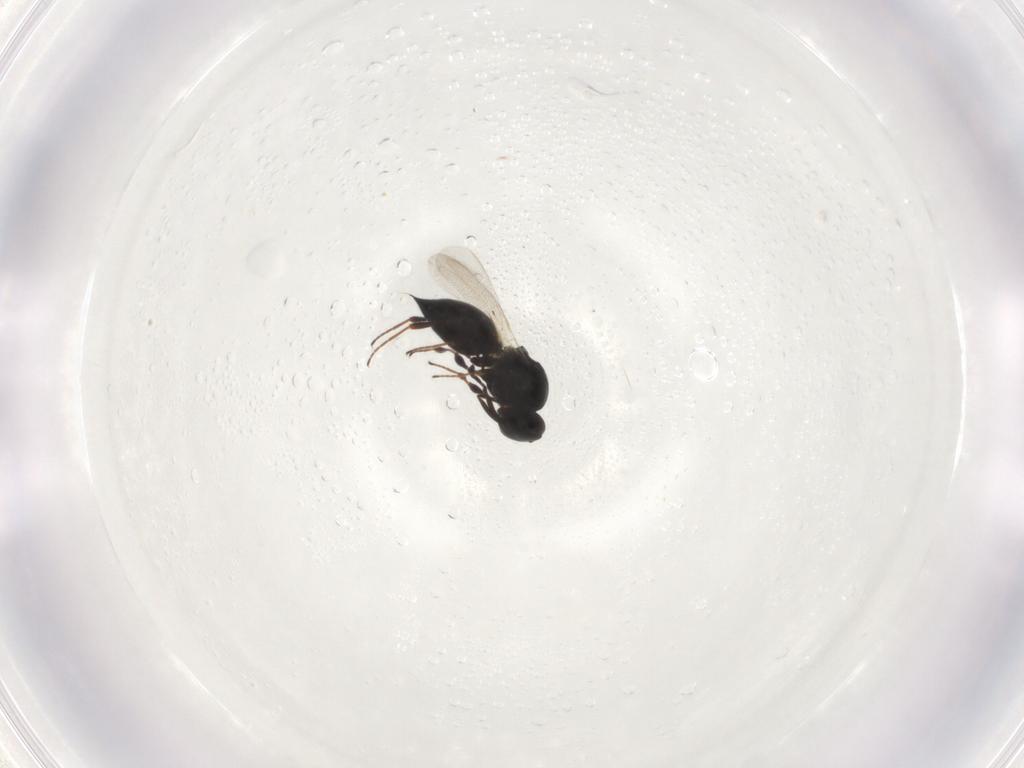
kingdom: Animalia
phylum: Arthropoda
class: Insecta
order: Hymenoptera
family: Platygastridae
